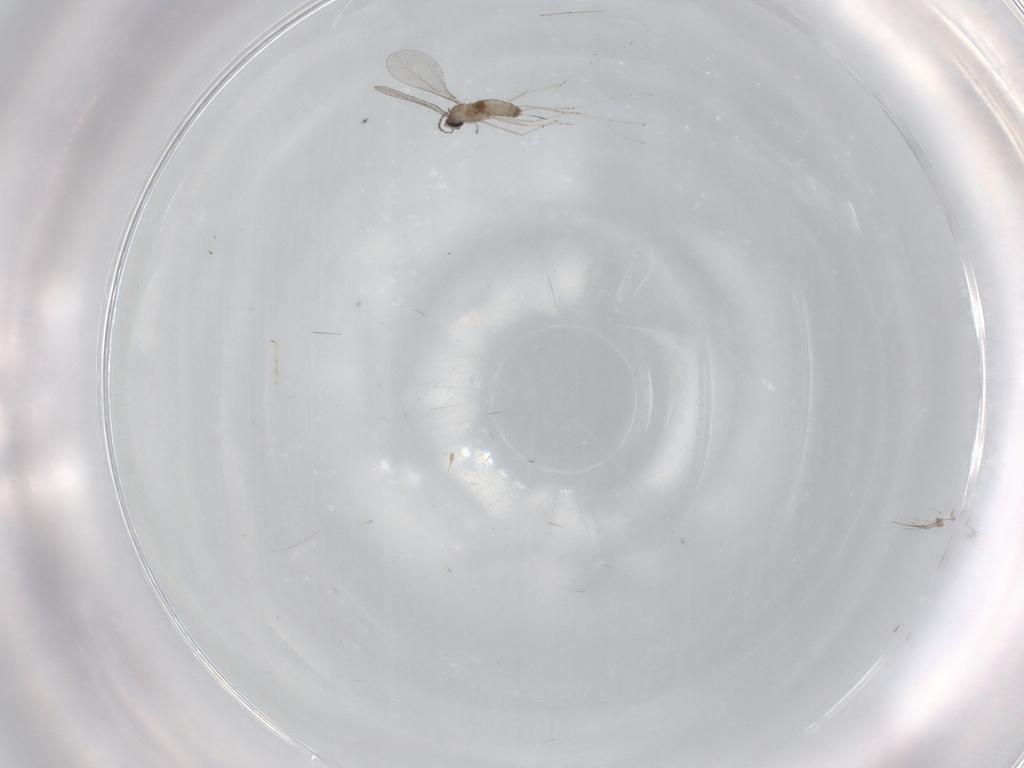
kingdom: Animalia
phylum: Arthropoda
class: Insecta
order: Diptera
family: Cecidomyiidae
